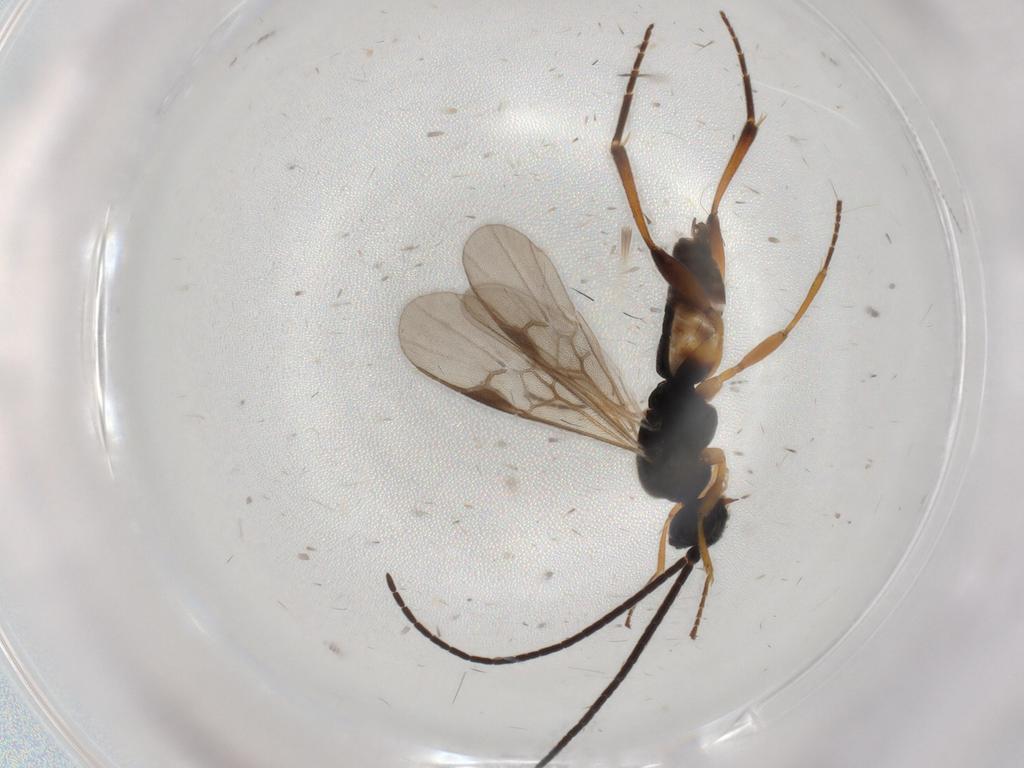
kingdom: Animalia
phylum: Arthropoda
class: Insecta
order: Hymenoptera
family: Braconidae
